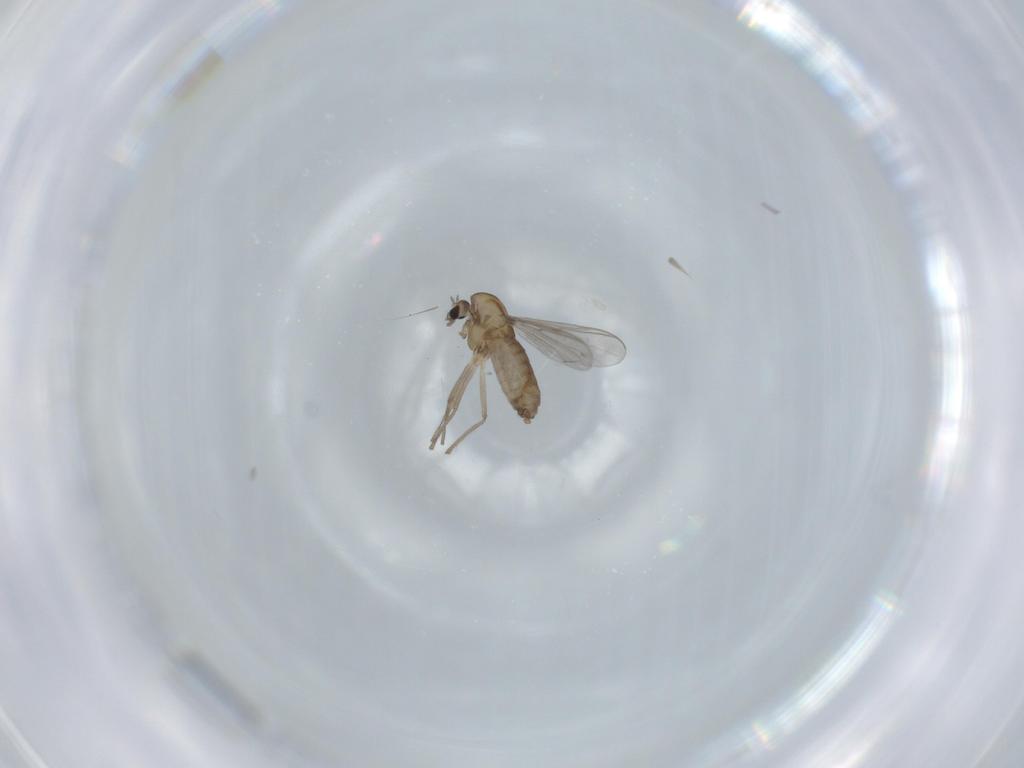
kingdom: Animalia
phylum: Arthropoda
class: Insecta
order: Diptera
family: Chironomidae
